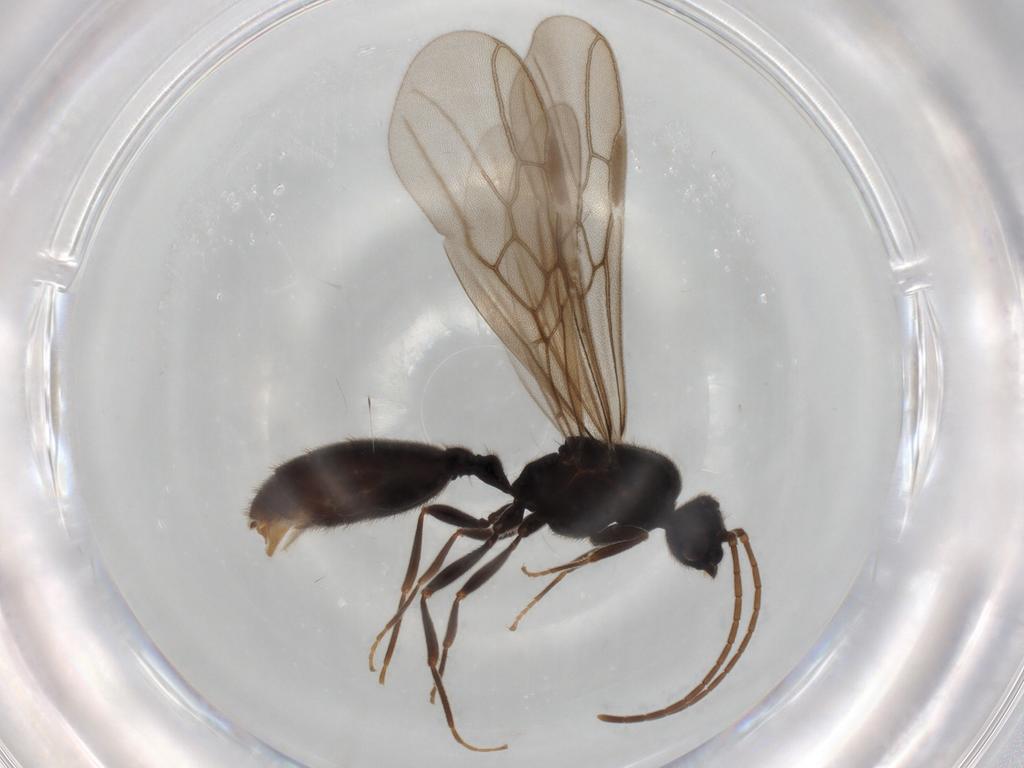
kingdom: Animalia
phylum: Arthropoda
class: Insecta
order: Hymenoptera
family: Formicidae
